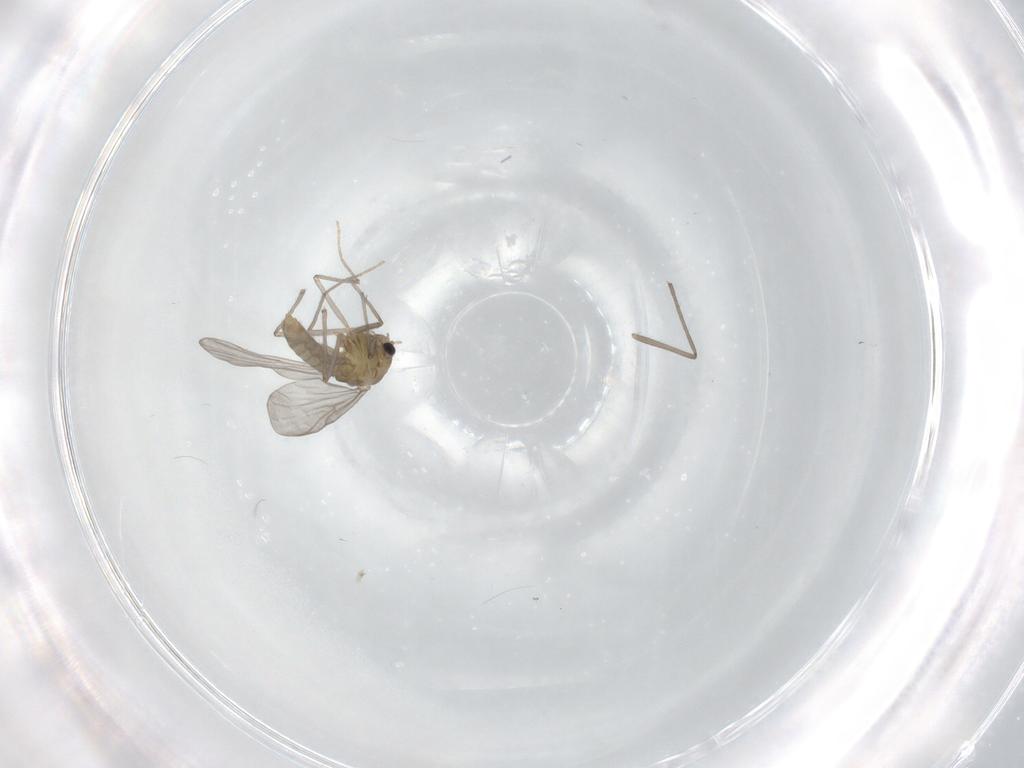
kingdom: Animalia
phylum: Arthropoda
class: Insecta
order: Diptera
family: Chironomidae
